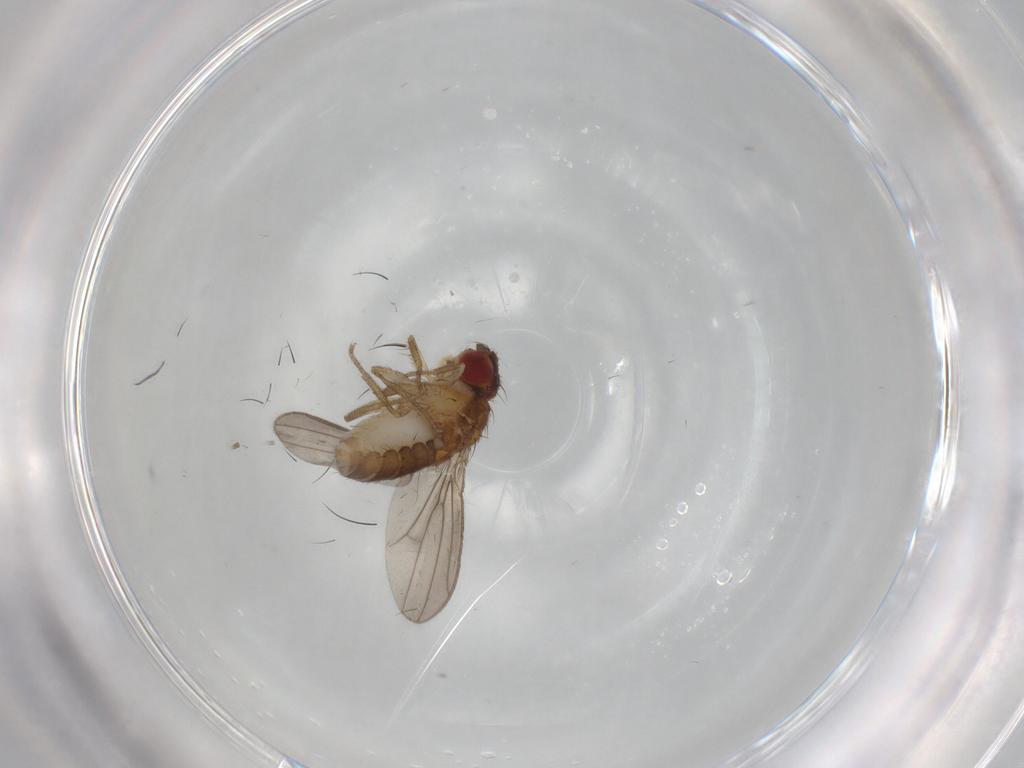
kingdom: Animalia
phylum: Arthropoda
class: Insecta
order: Diptera
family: Drosophilidae
